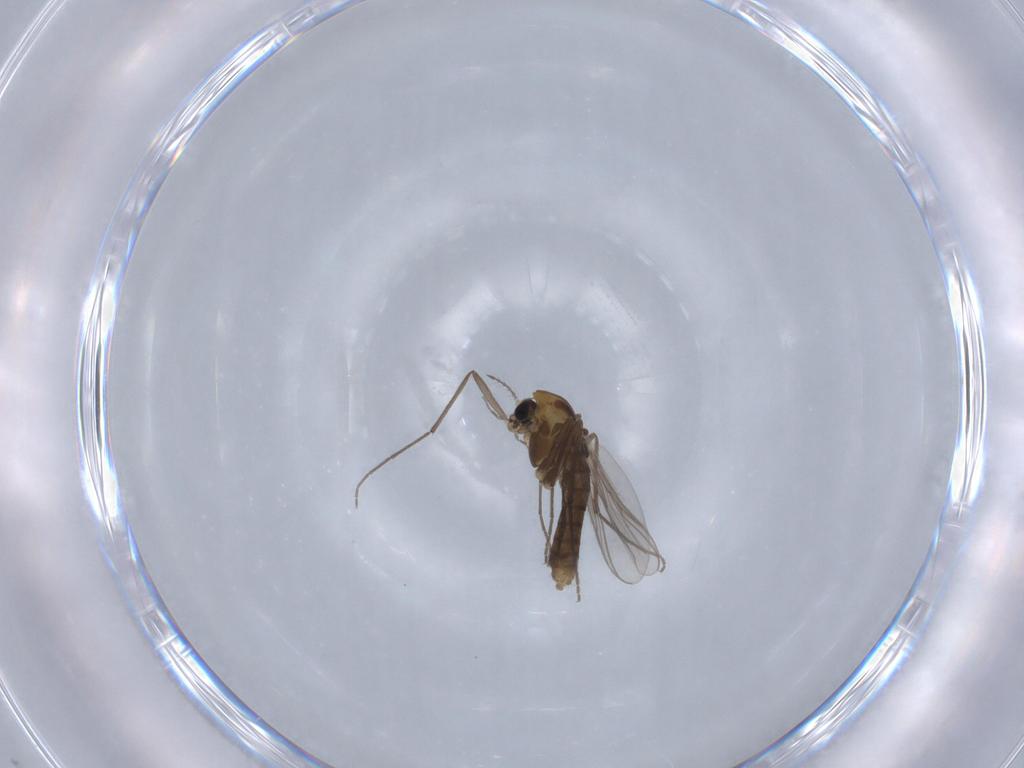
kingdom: Animalia
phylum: Arthropoda
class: Insecta
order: Diptera
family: Chironomidae
